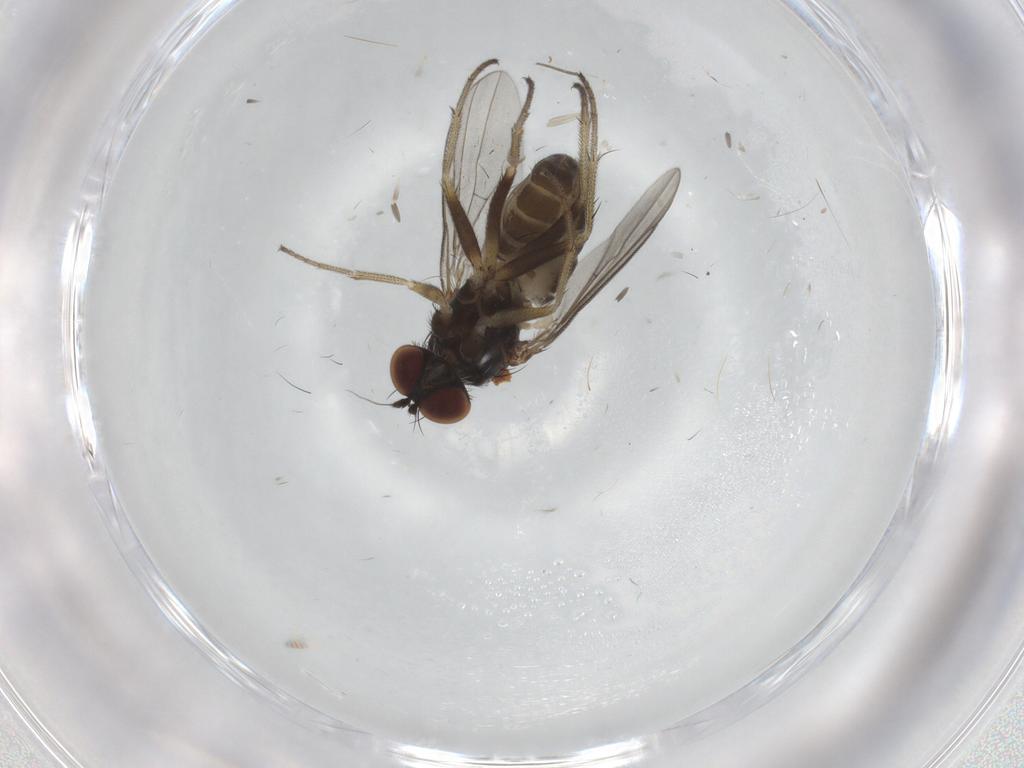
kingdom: Animalia
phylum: Arthropoda
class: Insecta
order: Diptera
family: Dolichopodidae
